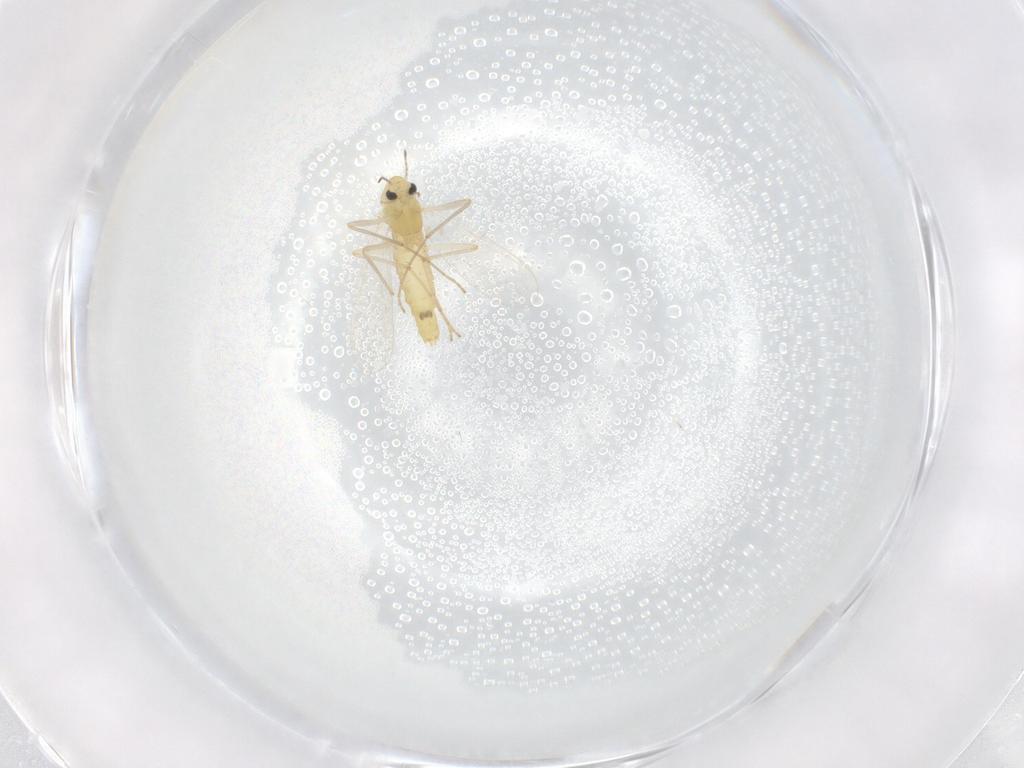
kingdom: Animalia
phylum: Arthropoda
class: Insecta
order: Diptera
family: Chironomidae
